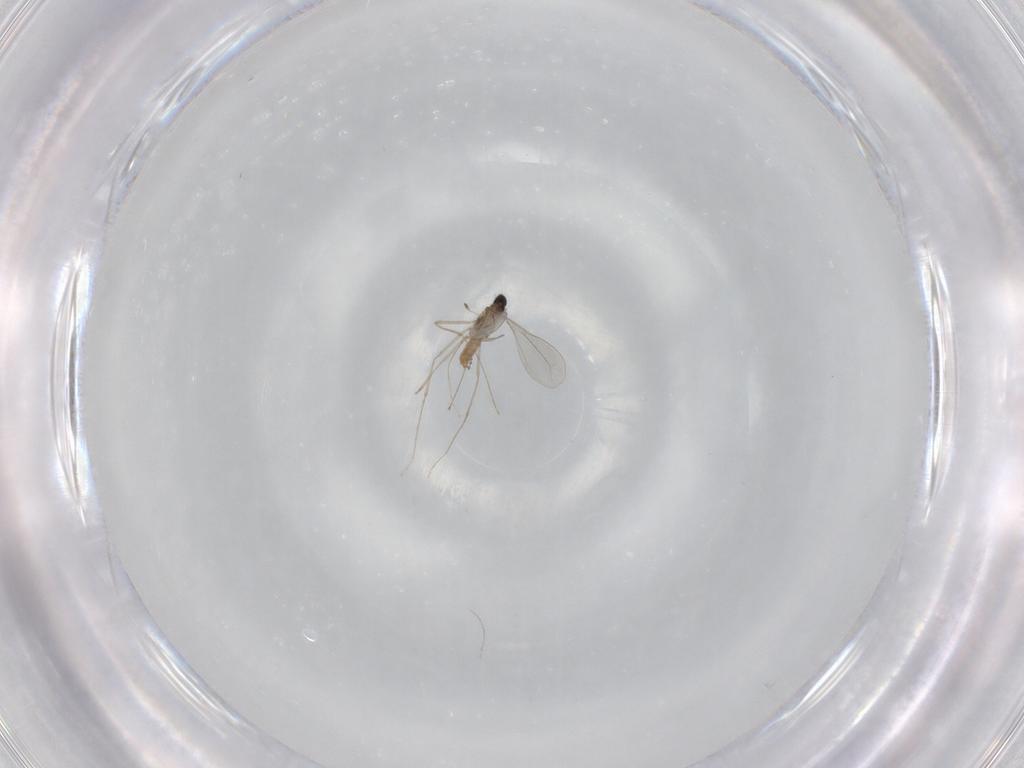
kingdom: Animalia
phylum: Arthropoda
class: Insecta
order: Diptera
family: Cecidomyiidae
